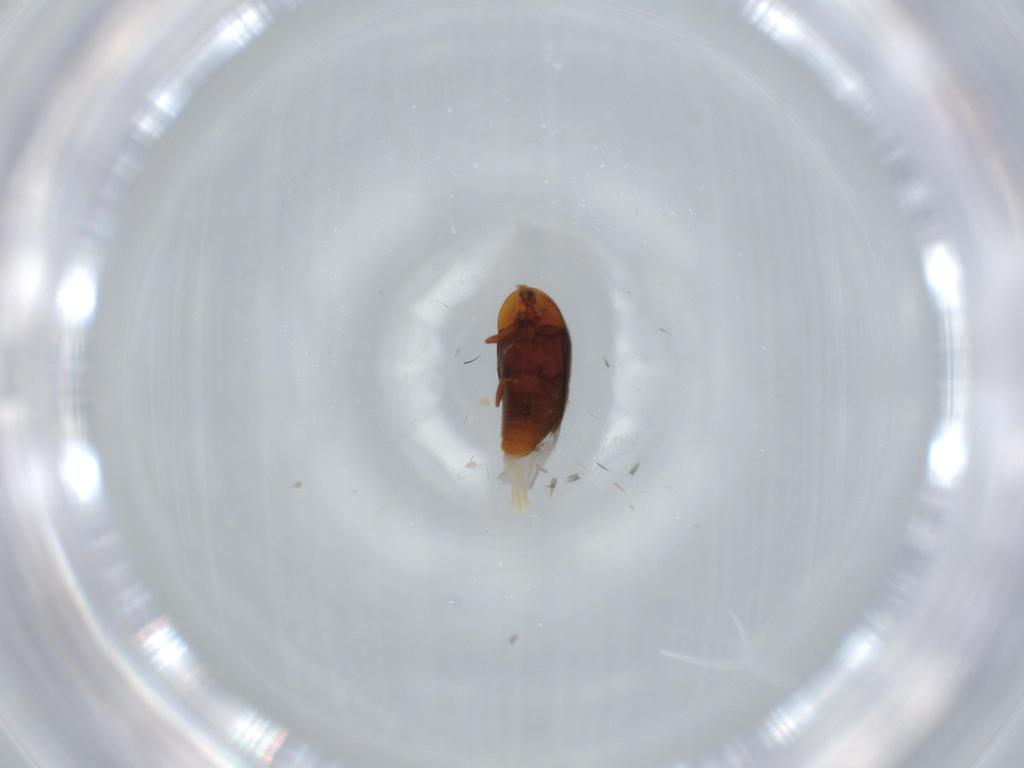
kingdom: Animalia
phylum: Arthropoda
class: Insecta
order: Coleoptera
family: Corylophidae
